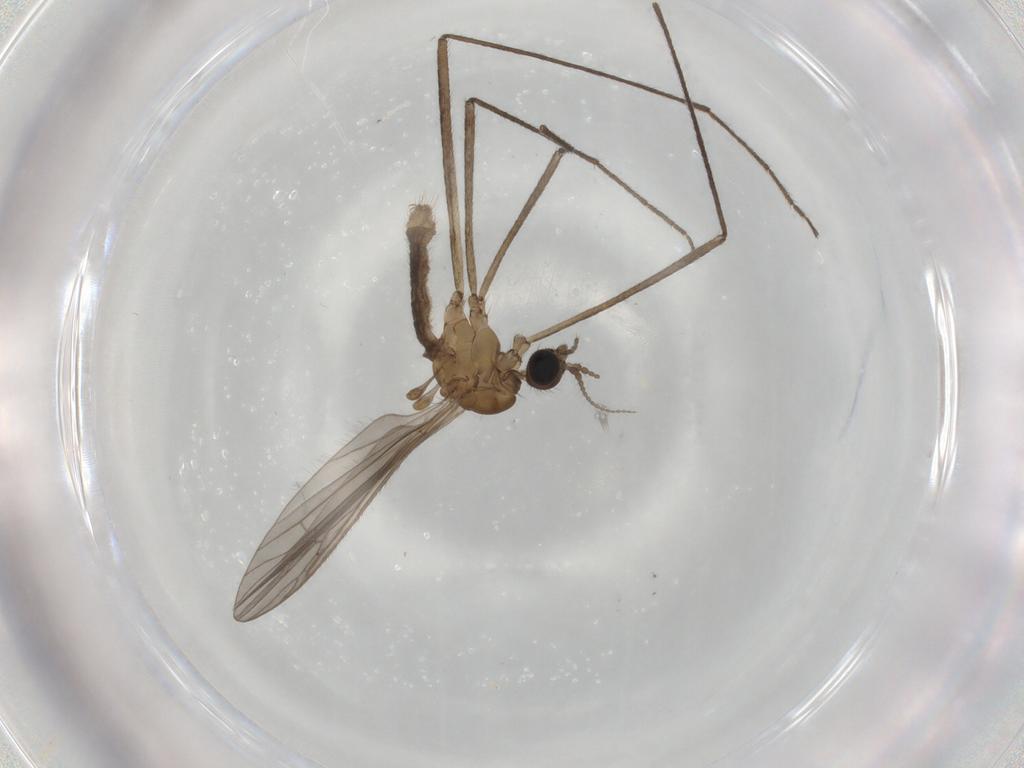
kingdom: Animalia
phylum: Arthropoda
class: Insecta
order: Diptera
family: Limoniidae
